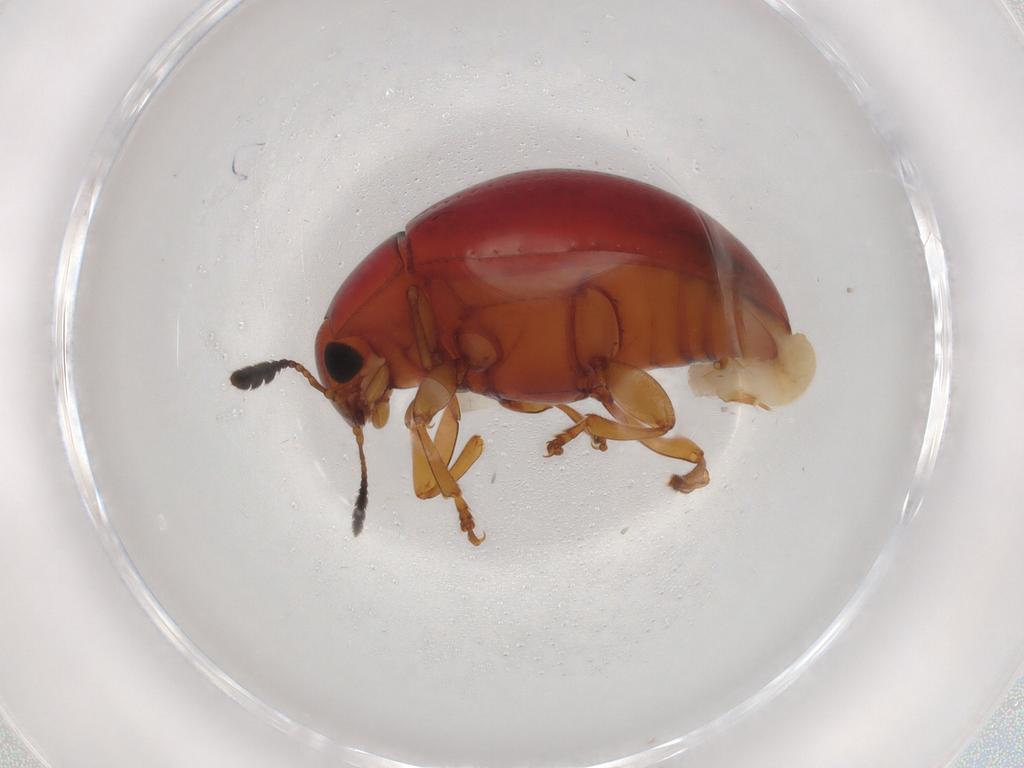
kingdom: Animalia
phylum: Arthropoda
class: Insecta
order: Coleoptera
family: Erotylidae
